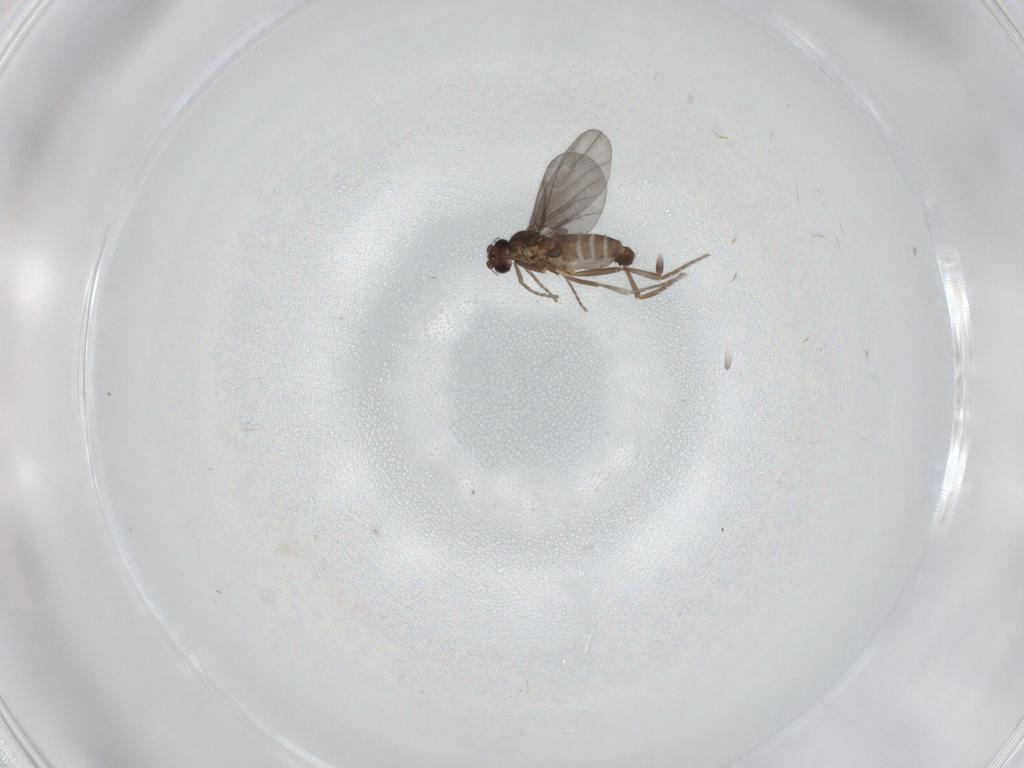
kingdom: Animalia
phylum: Arthropoda
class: Insecta
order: Diptera
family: Phoridae
